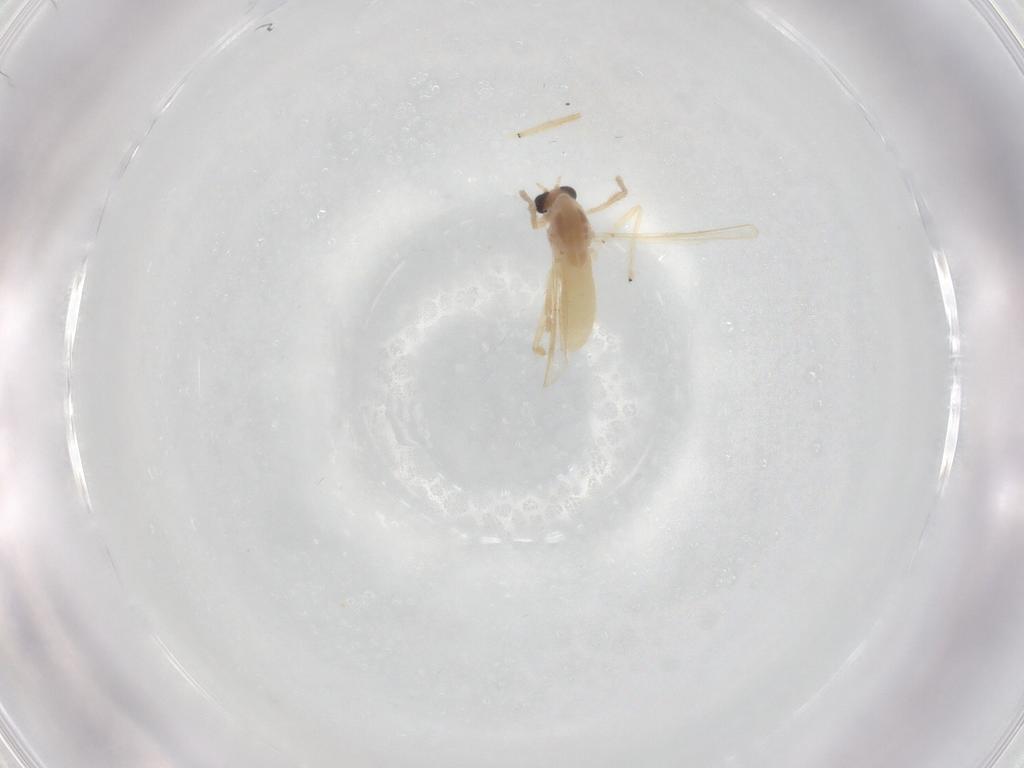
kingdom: Animalia
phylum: Arthropoda
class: Insecta
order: Diptera
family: Chironomidae
